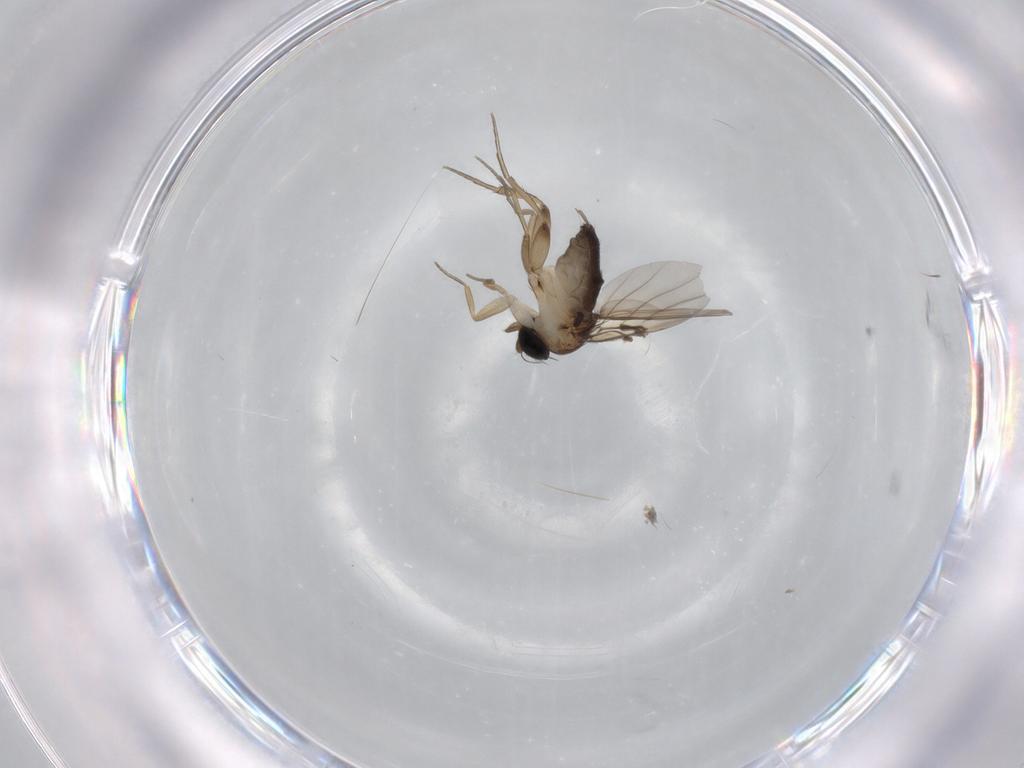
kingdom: Animalia
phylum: Arthropoda
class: Insecta
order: Diptera
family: Phoridae
